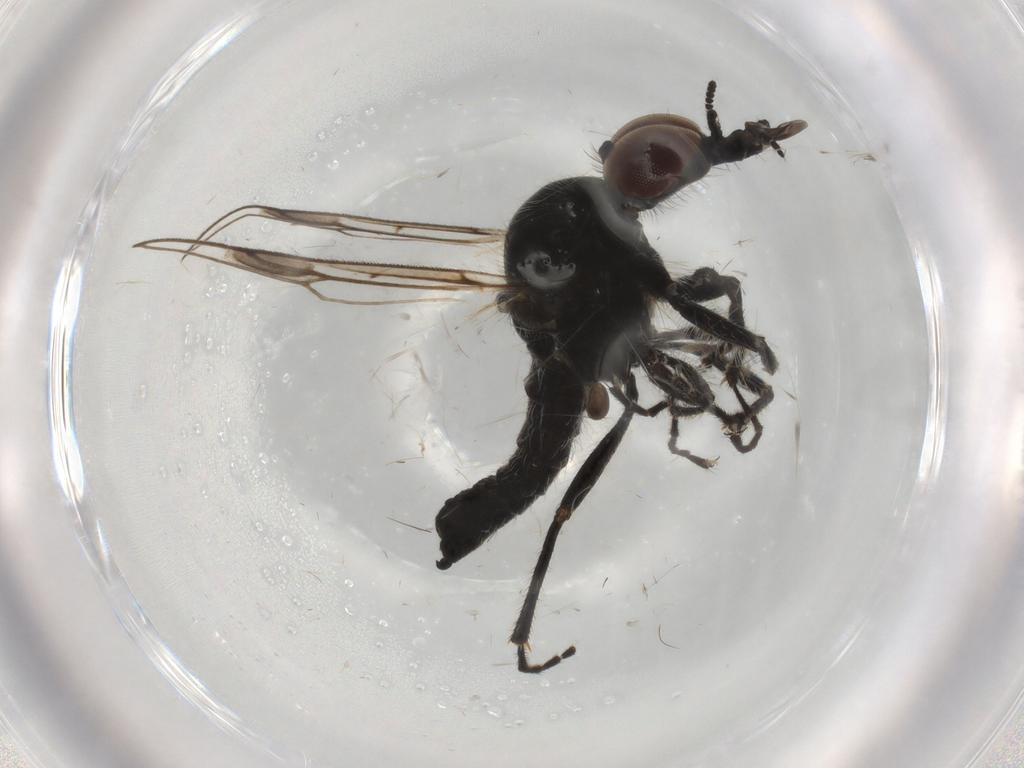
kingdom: Animalia
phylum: Arthropoda
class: Insecta
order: Diptera
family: Bibionidae
